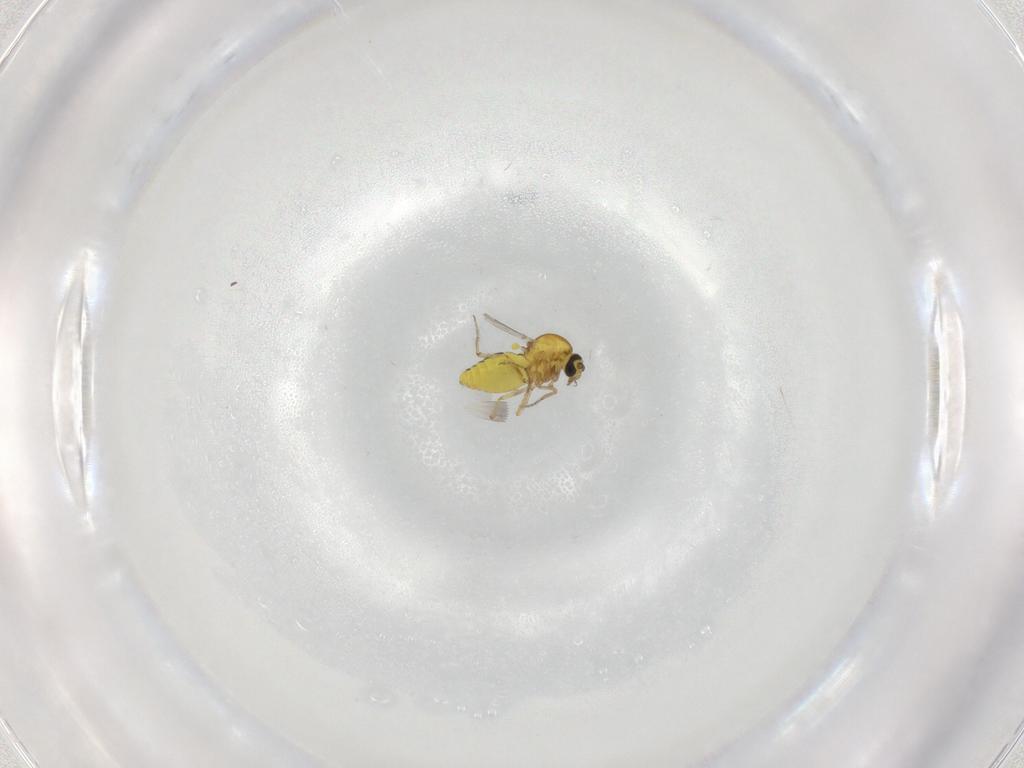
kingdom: Animalia
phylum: Arthropoda
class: Insecta
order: Diptera
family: Ceratopogonidae
